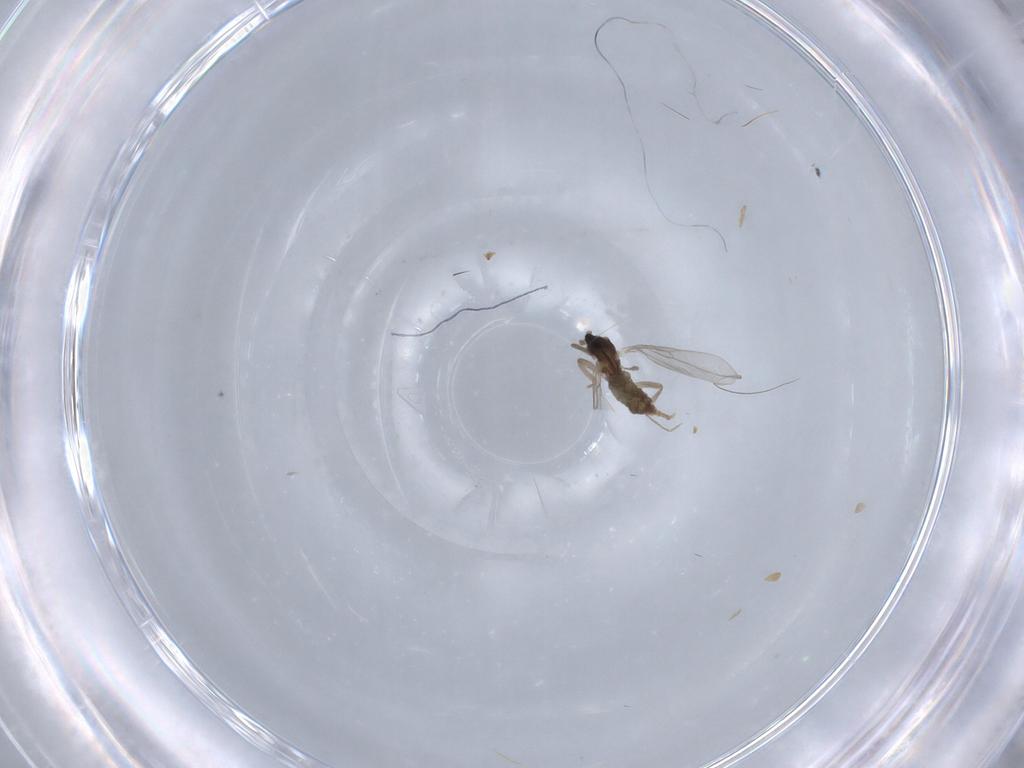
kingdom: Animalia
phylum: Arthropoda
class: Insecta
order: Diptera
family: Cecidomyiidae
